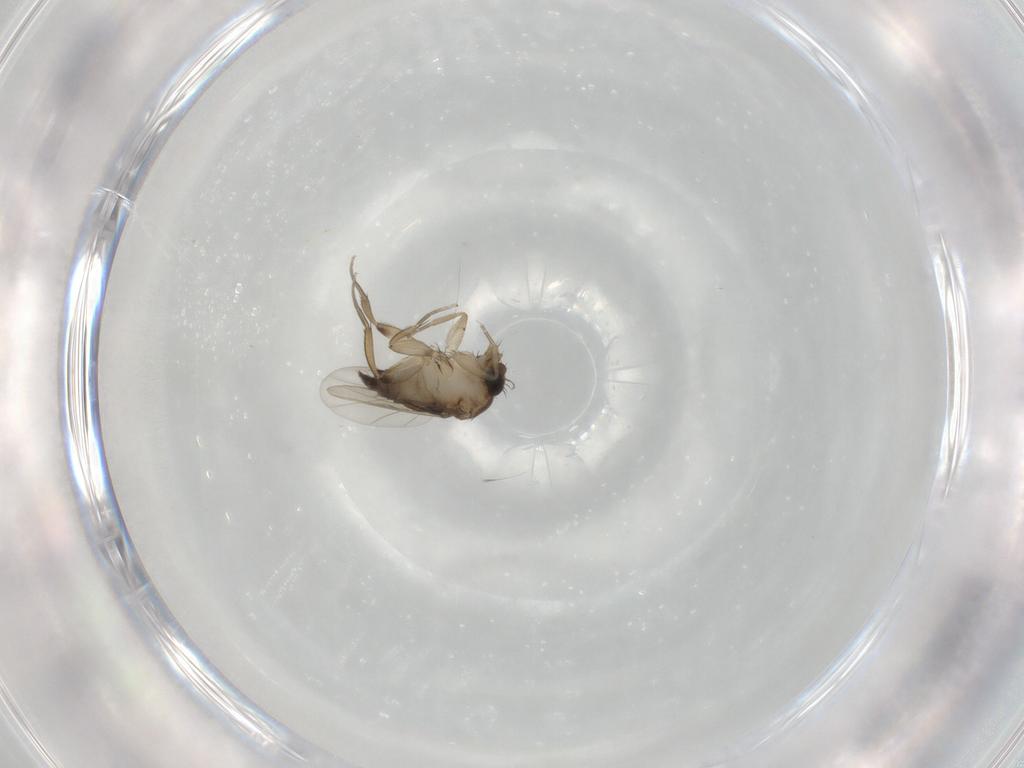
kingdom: Animalia
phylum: Arthropoda
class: Insecta
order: Diptera
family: Phoridae
